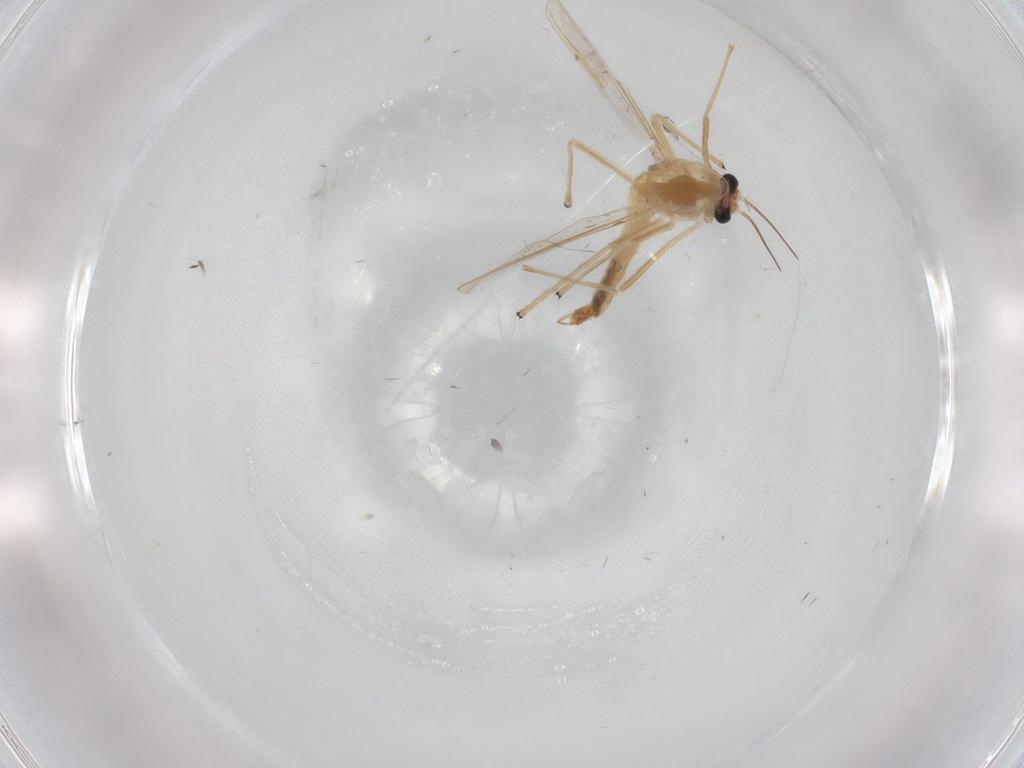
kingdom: Animalia
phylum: Arthropoda
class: Insecta
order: Diptera
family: Chironomidae
